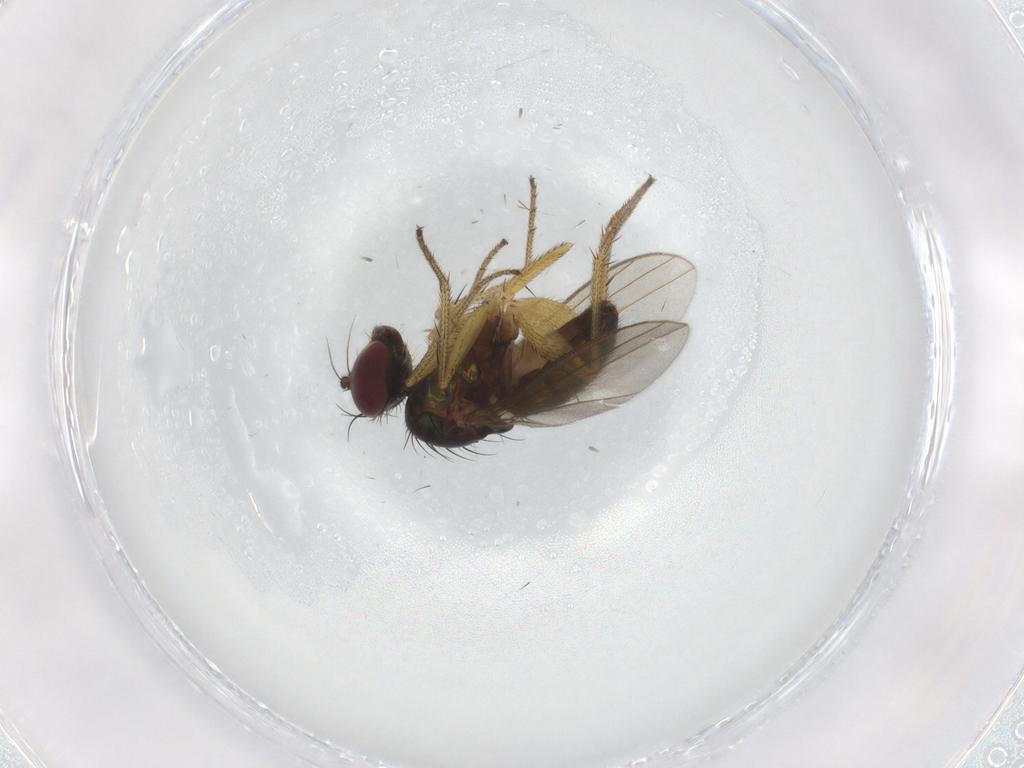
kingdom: Animalia
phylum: Arthropoda
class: Insecta
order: Diptera
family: Dolichopodidae
